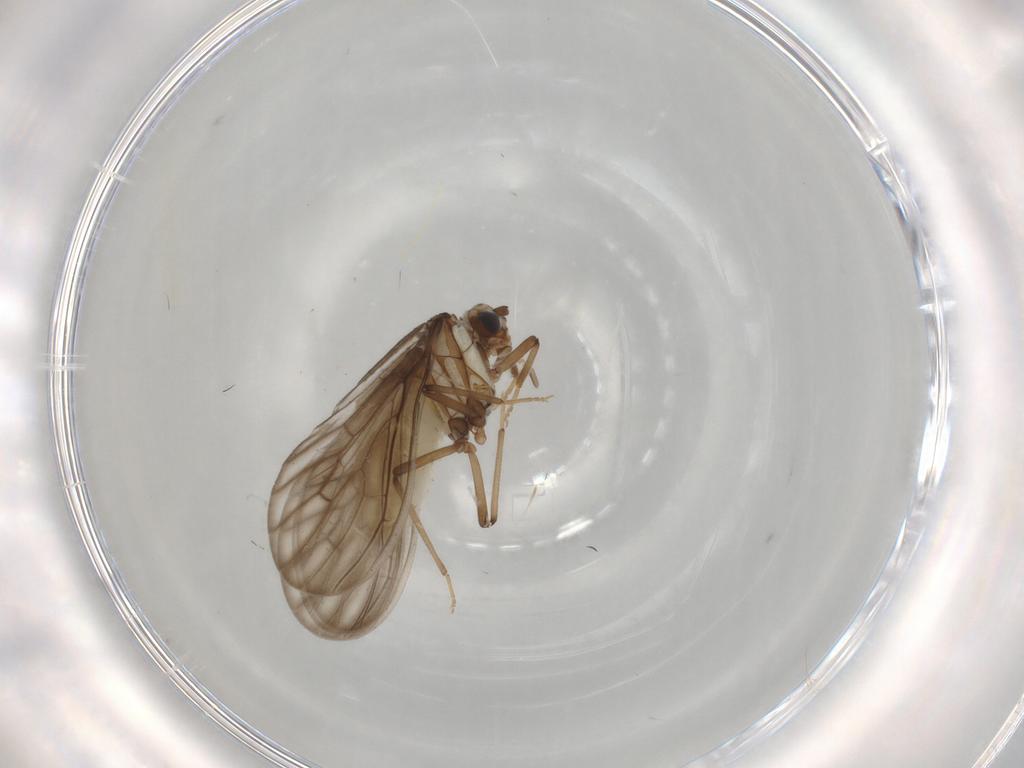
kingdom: Animalia
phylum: Arthropoda
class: Insecta
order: Neuroptera
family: Coniopterygidae
